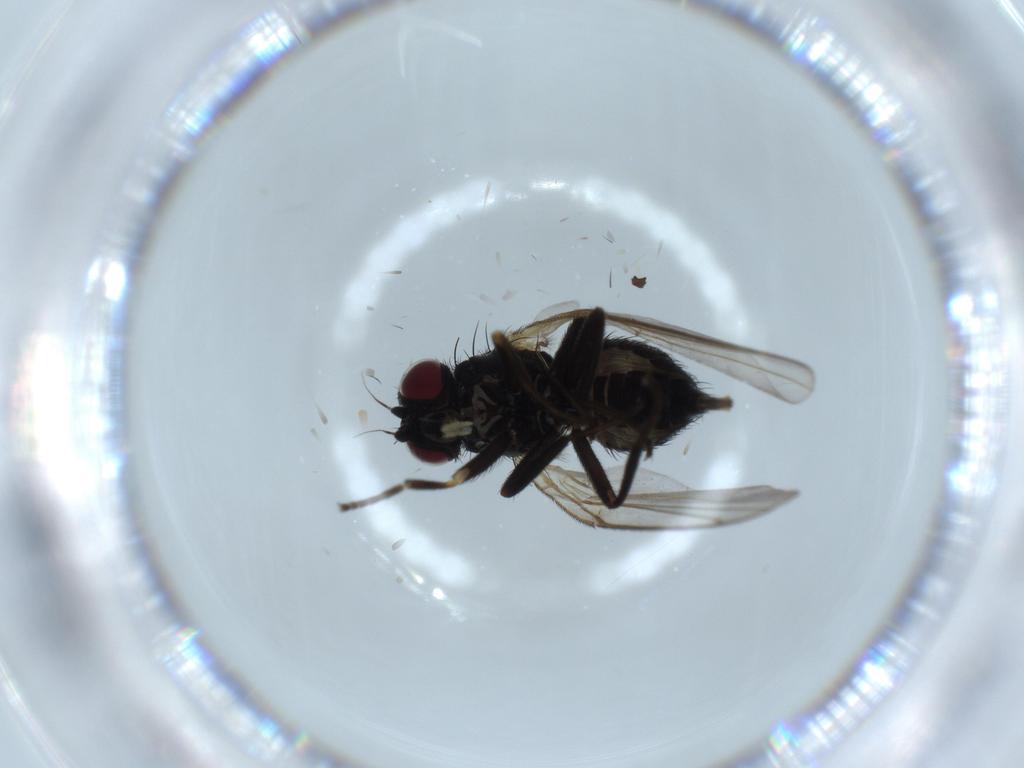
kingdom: Animalia
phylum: Arthropoda
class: Insecta
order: Diptera
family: Agromyzidae
